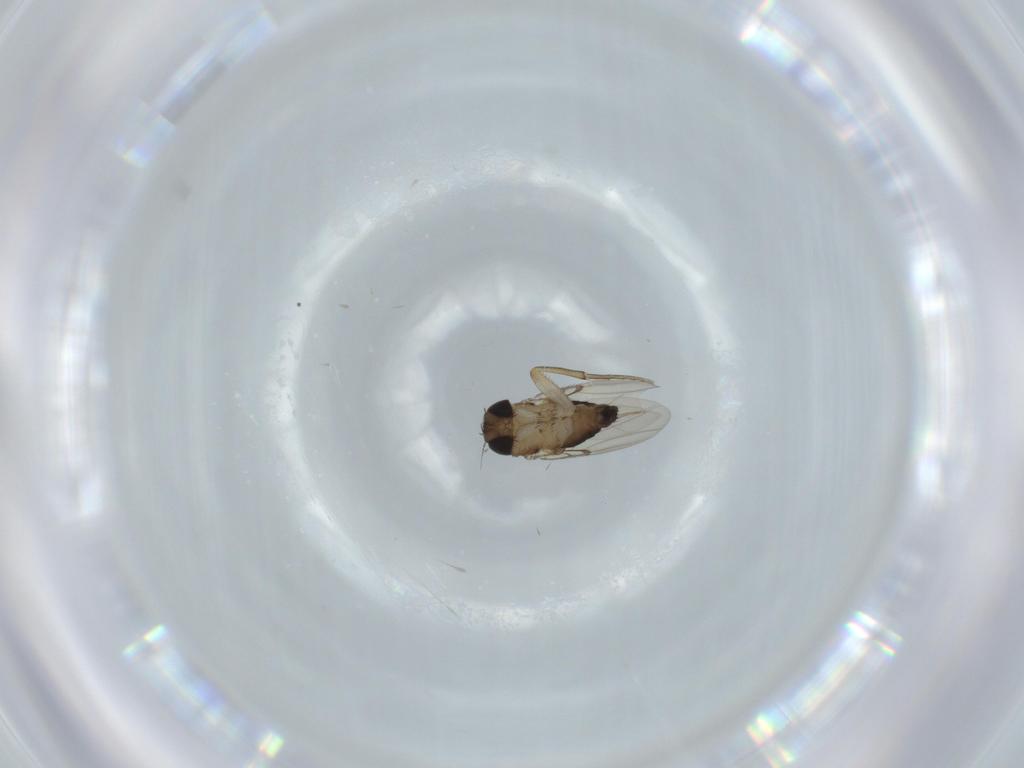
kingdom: Animalia
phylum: Arthropoda
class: Insecta
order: Diptera
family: Phoridae
